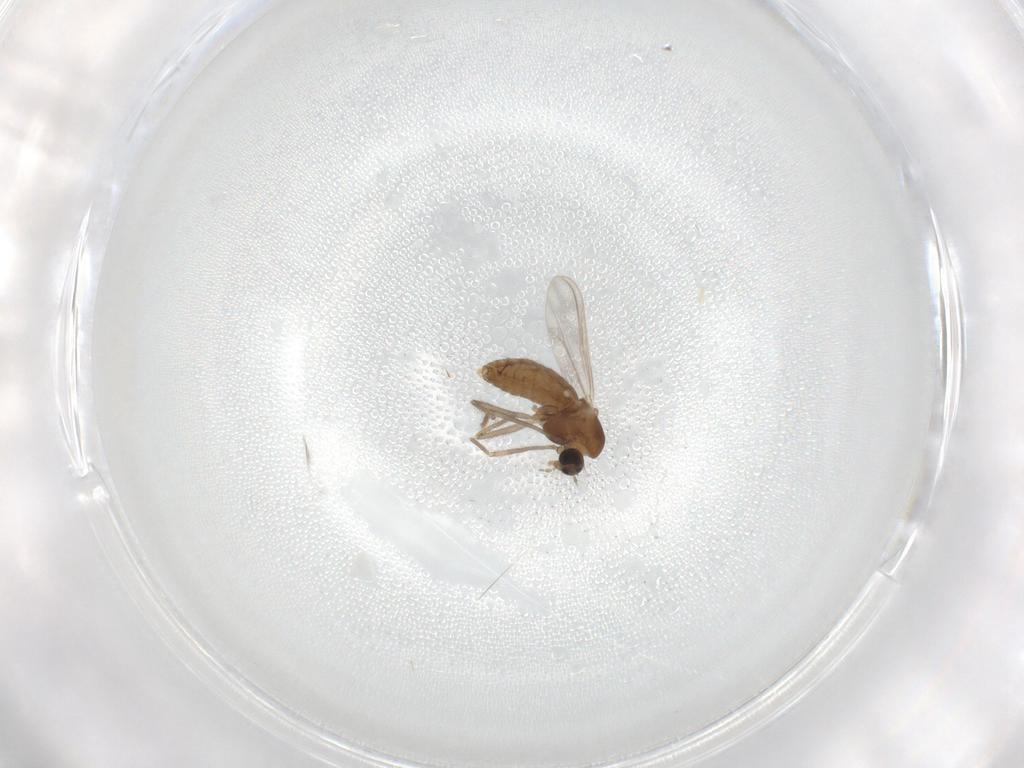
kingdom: Animalia
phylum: Arthropoda
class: Insecta
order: Diptera
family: Chironomidae
